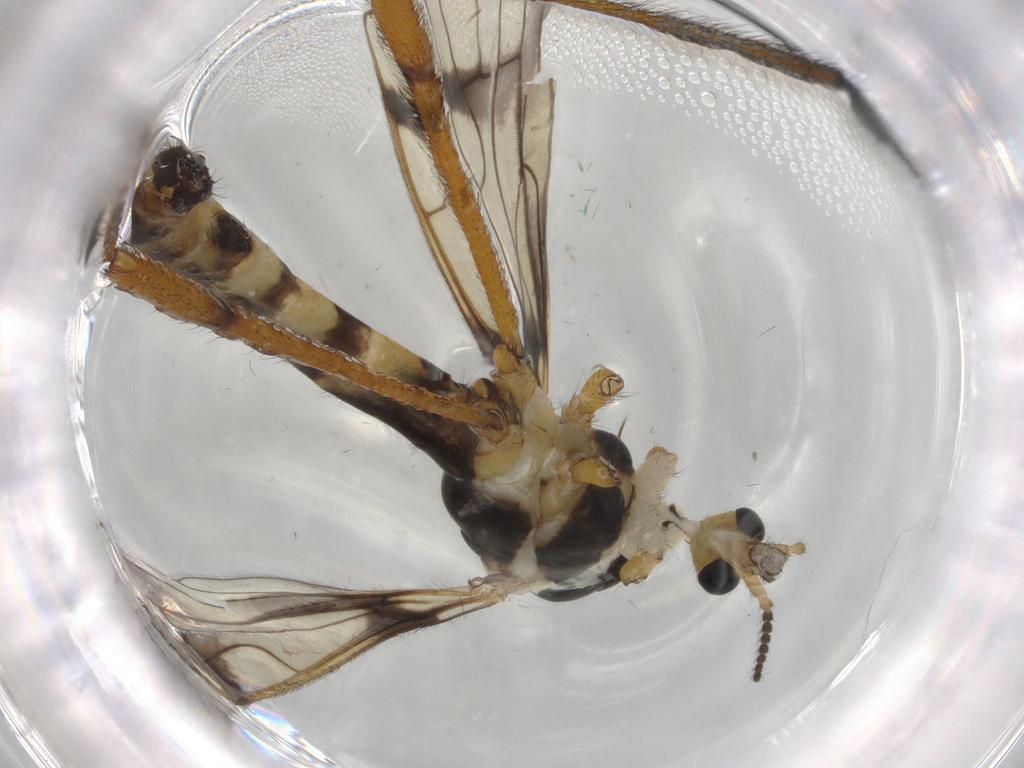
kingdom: Animalia
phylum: Arthropoda
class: Insecta
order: Diptera
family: Limoniidae
